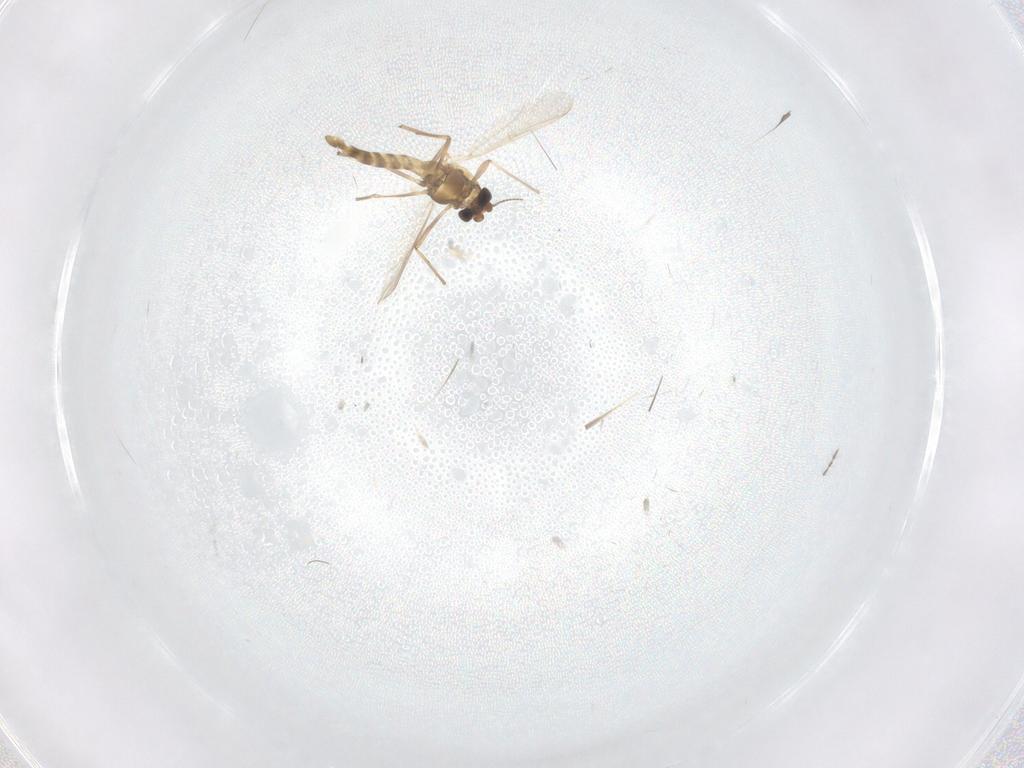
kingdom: Animalia
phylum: Arthropoda
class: Insecta
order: Diptera
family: Chironomidae
